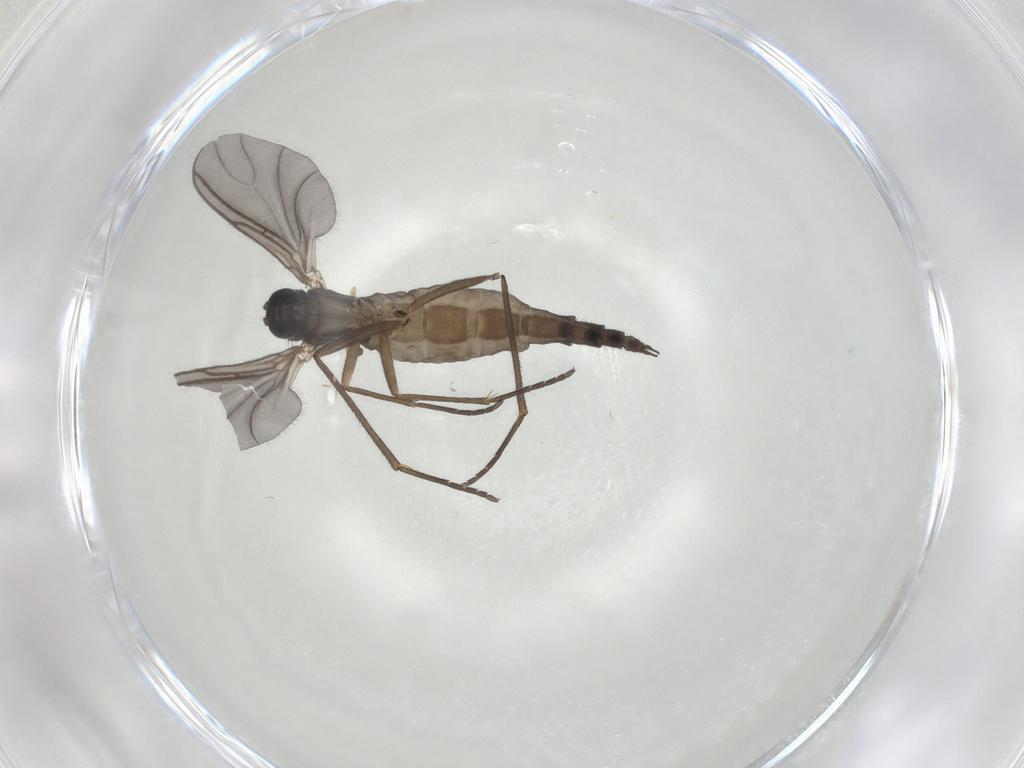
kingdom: Animalia
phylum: Arthropoda
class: Insecta
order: Diptera
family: Sciaridae
